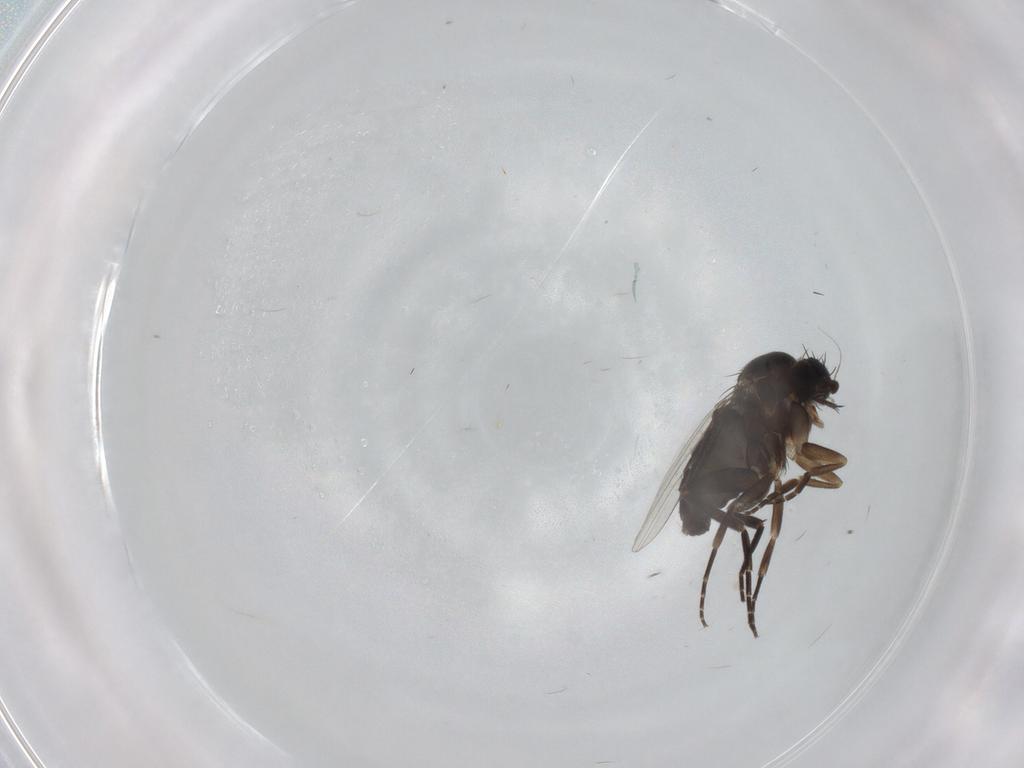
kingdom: Animalia
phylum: Arthropoda
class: Insecta
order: Diptera
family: Phoridae
